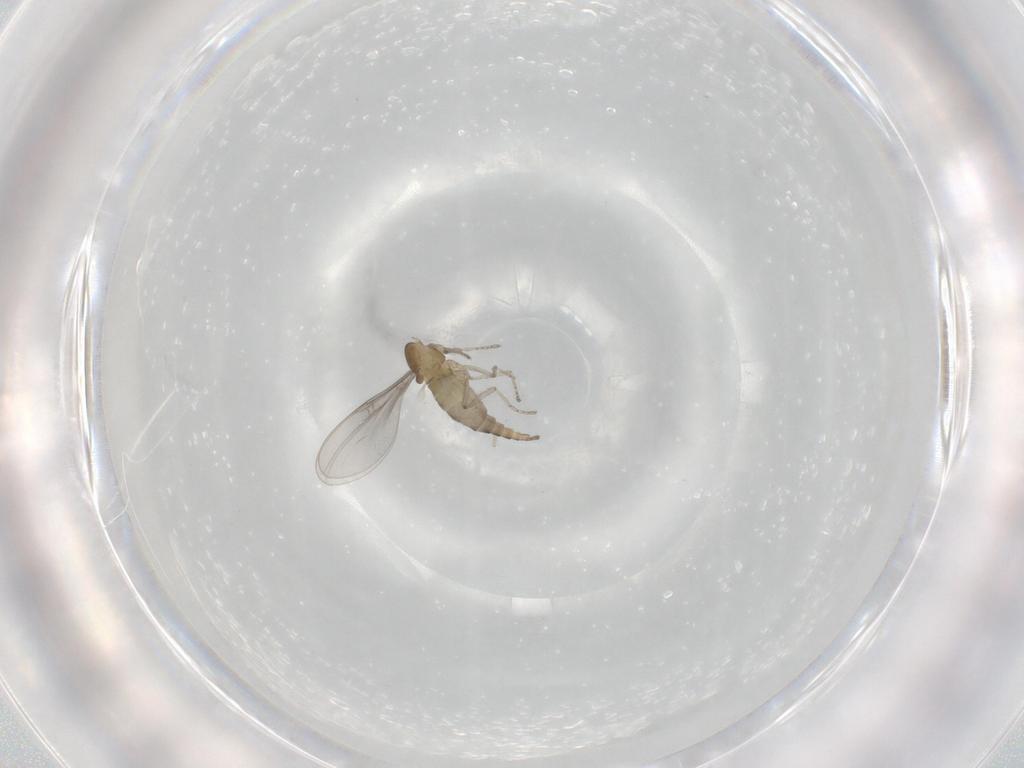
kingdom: Animalia
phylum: Arthropoda
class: Insecta
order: Diptera
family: Cecidomyiidae
